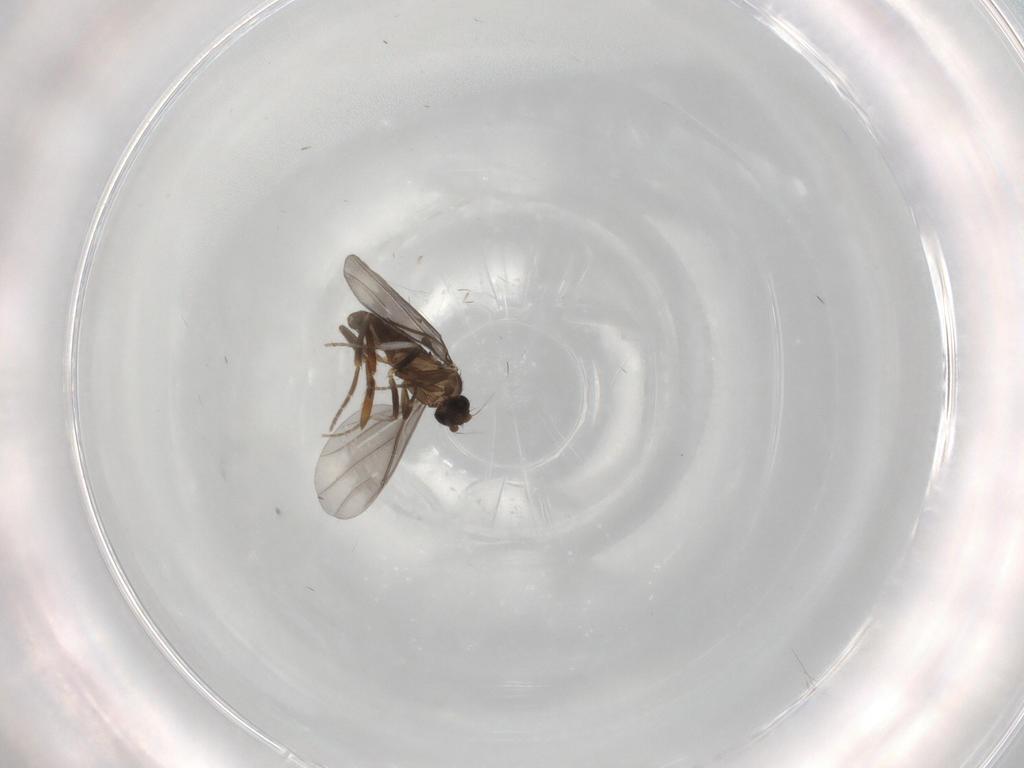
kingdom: Animalia
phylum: Arthropoda
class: Insecta
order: Diptera
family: Phoridae
